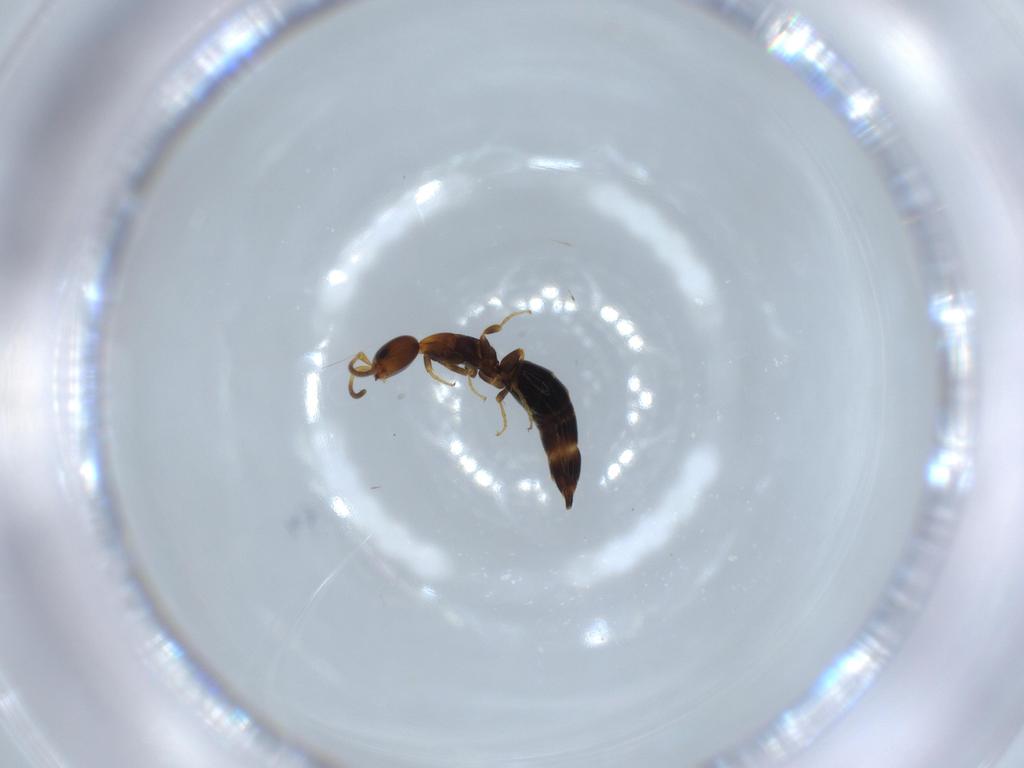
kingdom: Animalia
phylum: Arthropoda
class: Insecta
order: Hymenoptera
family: Bethylidae
